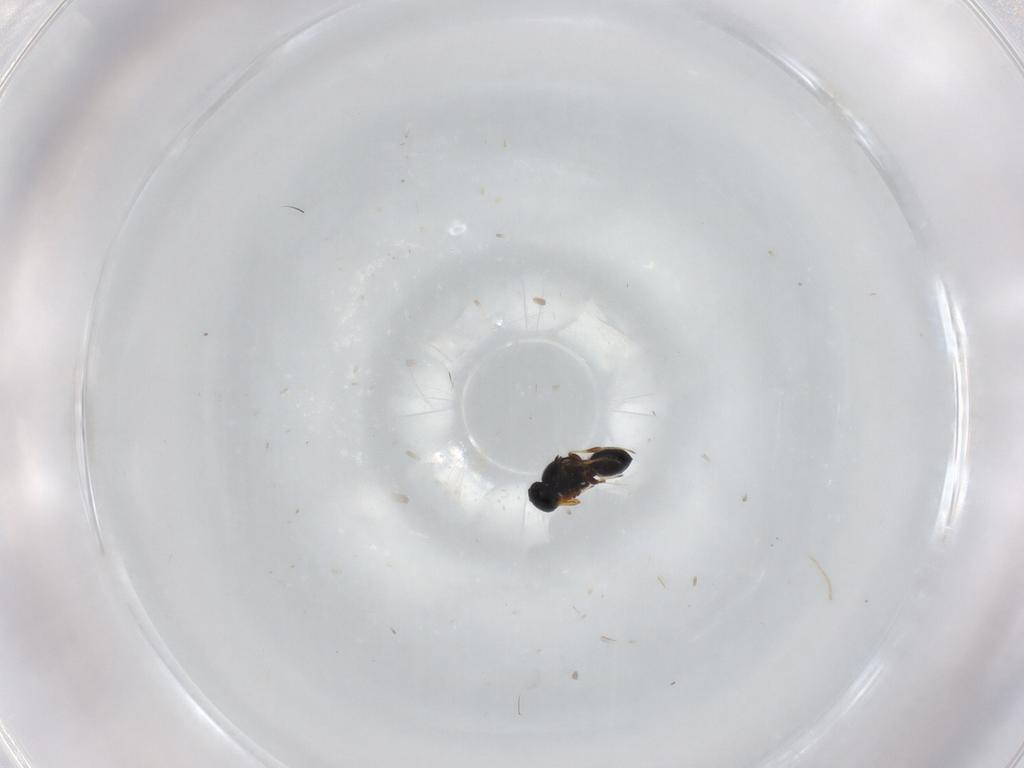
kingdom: Animalia
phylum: Arthropoda
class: Insecta
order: Hymenoptera
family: Platygastridae
